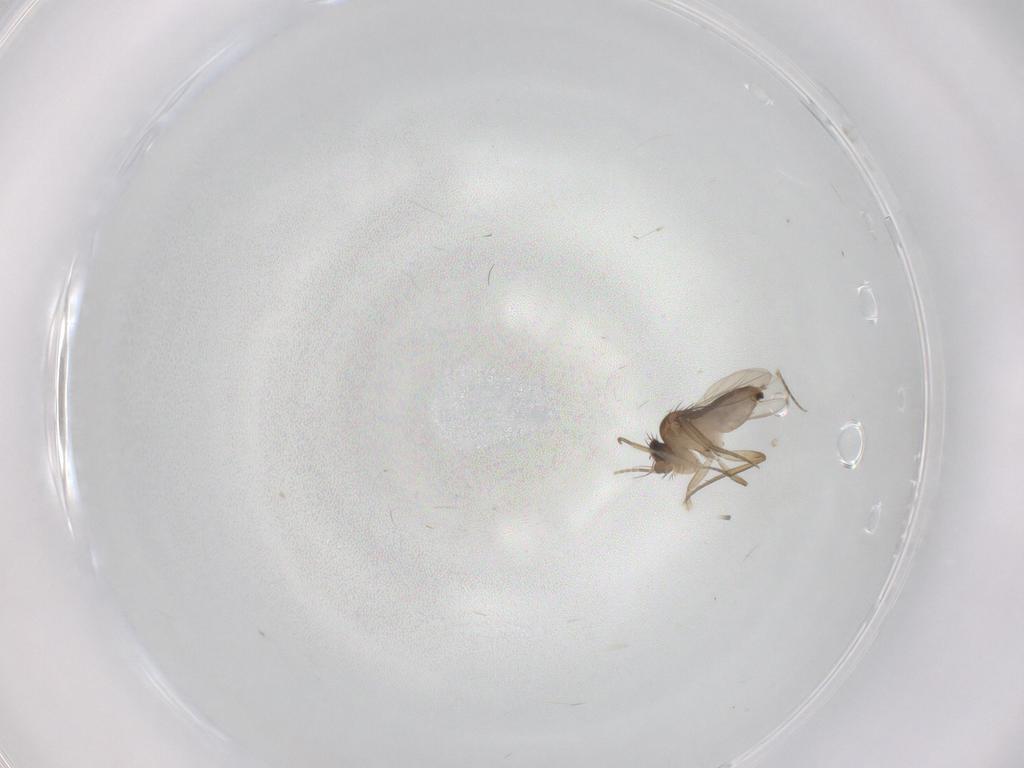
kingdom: Animalia
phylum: Arthropoda
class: Insecta
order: Diptera
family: Phoridae
